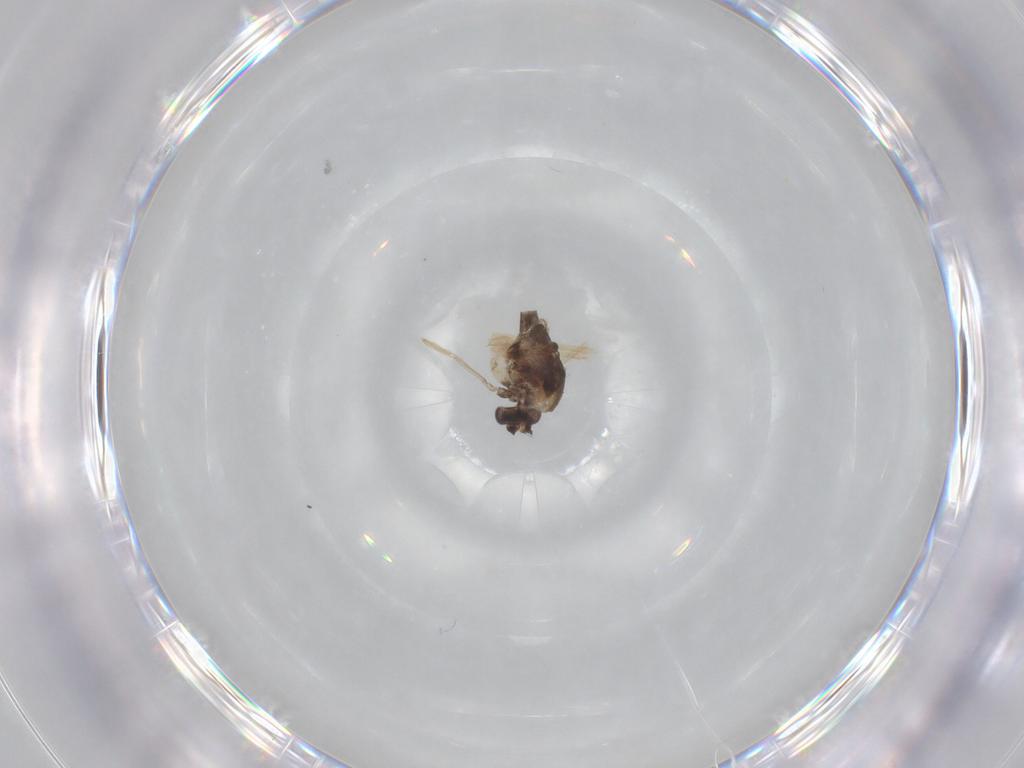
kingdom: Animalia
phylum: Arthropoda
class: Insecta
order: Diptera
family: Chironomidae
